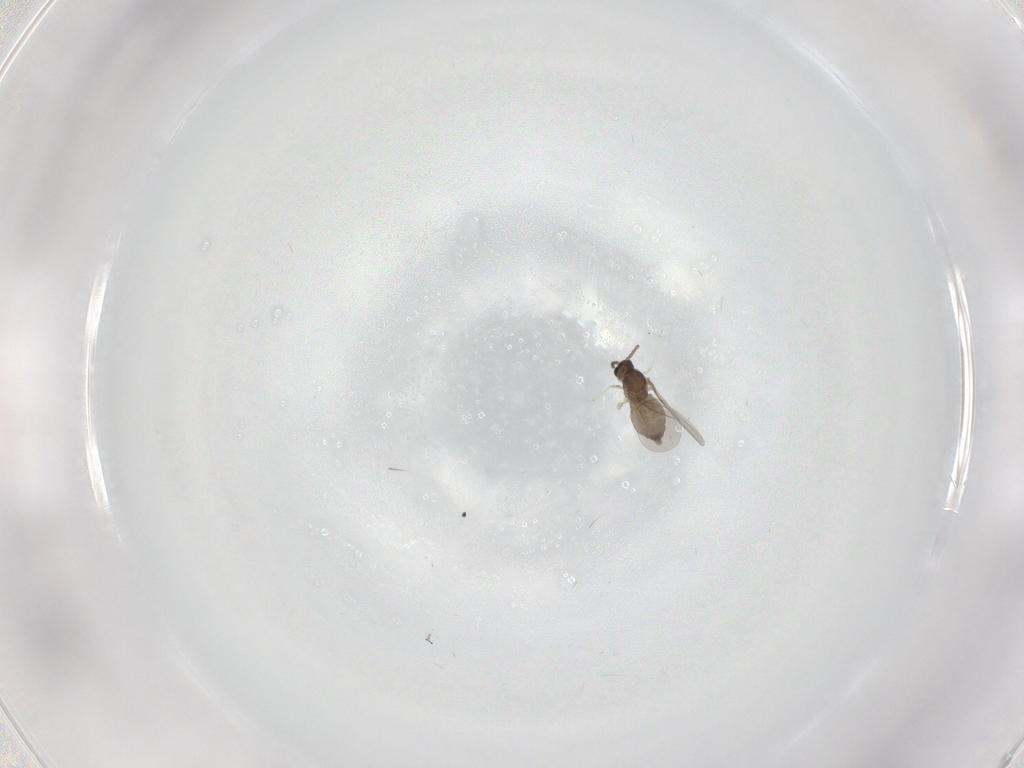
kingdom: Animalia
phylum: Arthropoda
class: Insecta
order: Diptera
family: Cecidomyiidae
